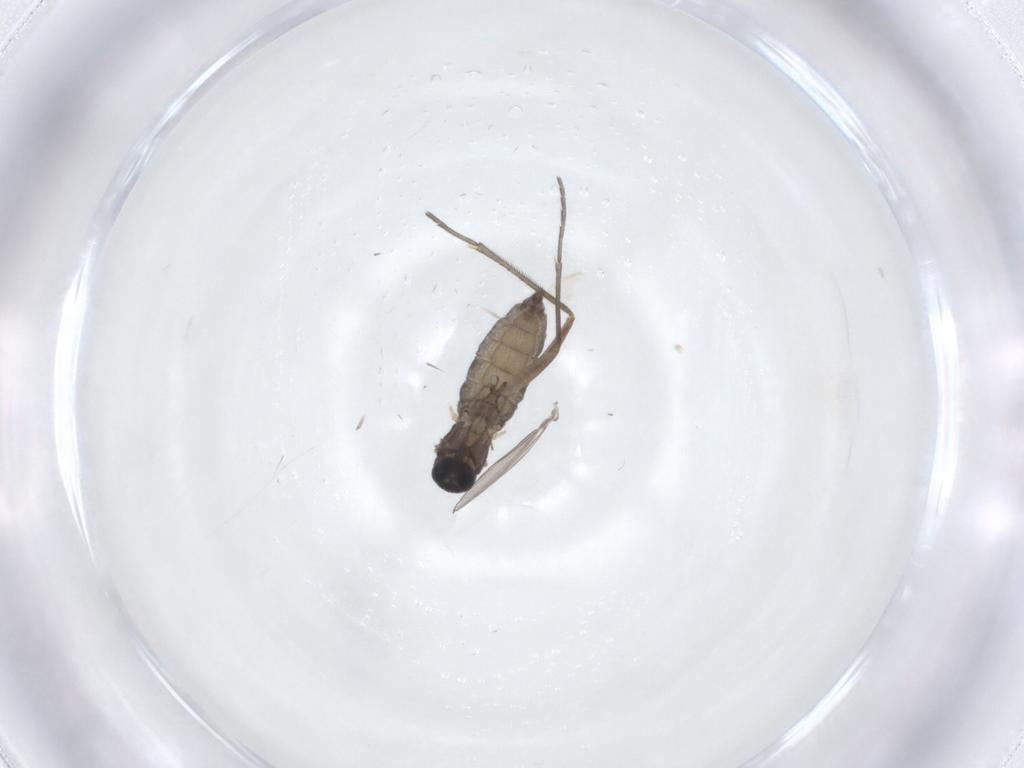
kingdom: Animalia
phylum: Arthropoda
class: Insecta
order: Diptera
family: Sciaridae
